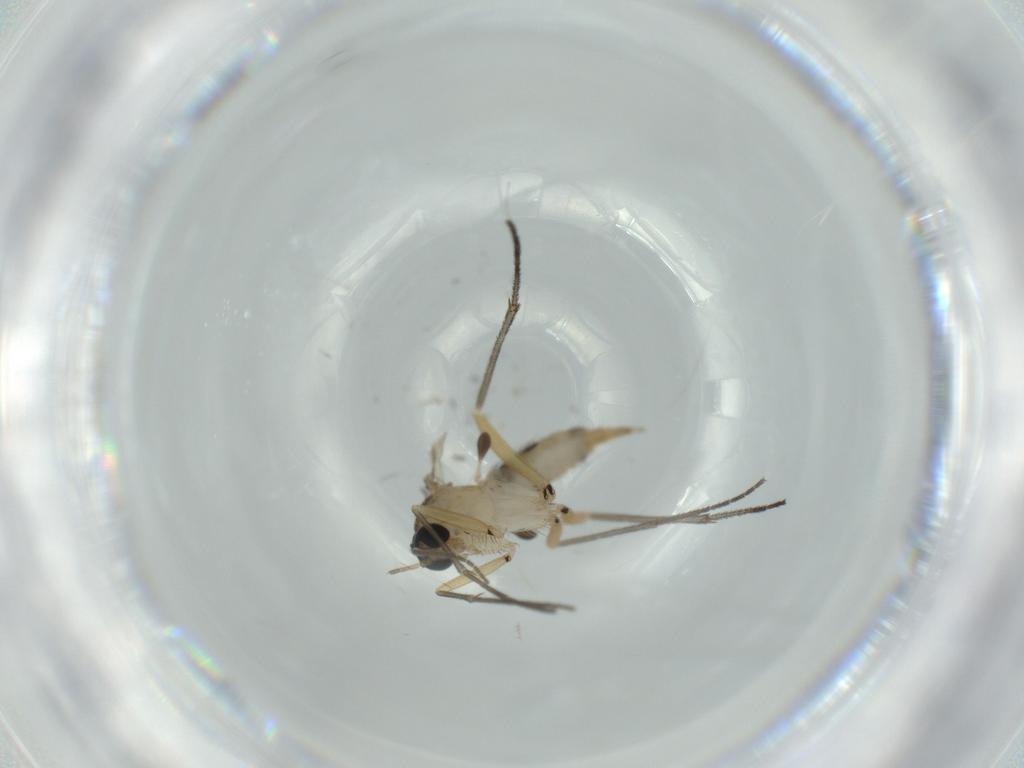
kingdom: Animalia
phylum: Arthropoda
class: Insecta
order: Diptera
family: Sciaridae
